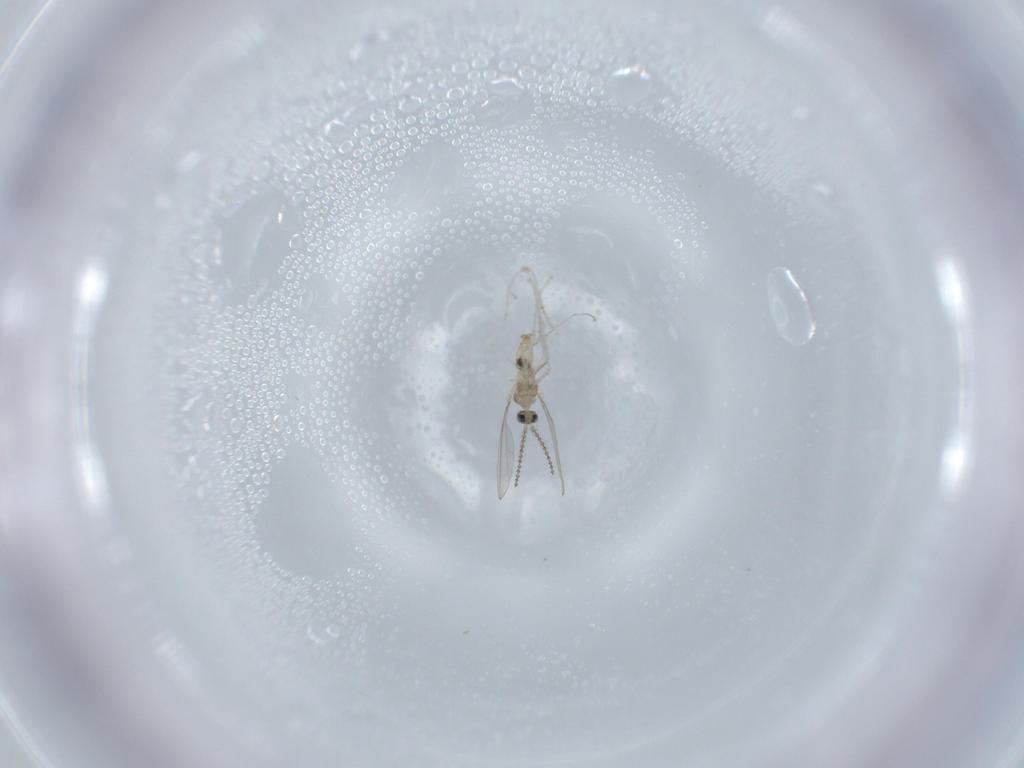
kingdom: Animalia
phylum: Arthropoda
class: Insecta
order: Diptera
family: Cecidomyiidae
